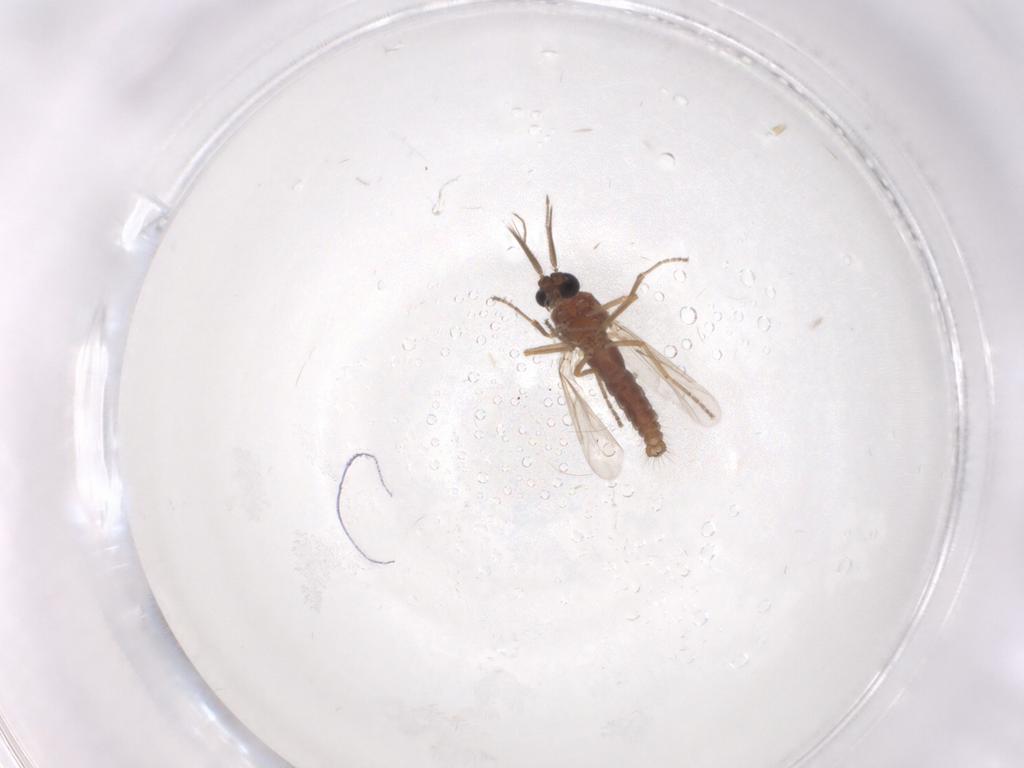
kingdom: Animalia
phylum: Arthropoda
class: Insecta
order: Diptera
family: Ceratopogonidae
